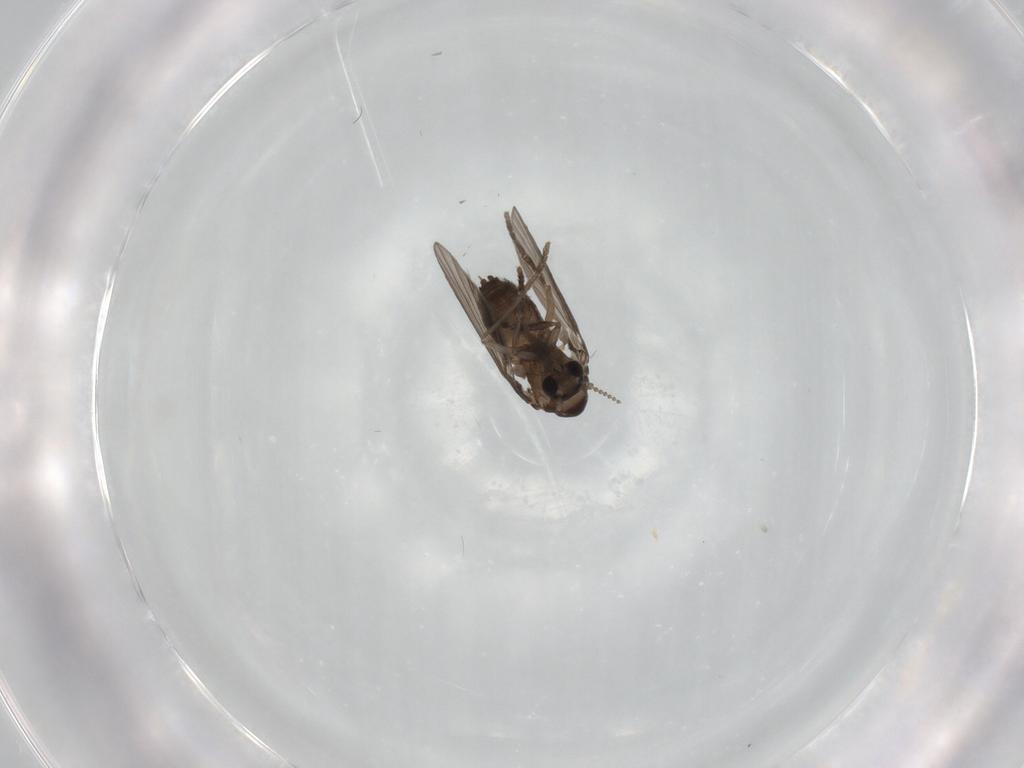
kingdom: Animalia
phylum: Arthropoda
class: Insecta
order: Diptera
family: Psychodidae
